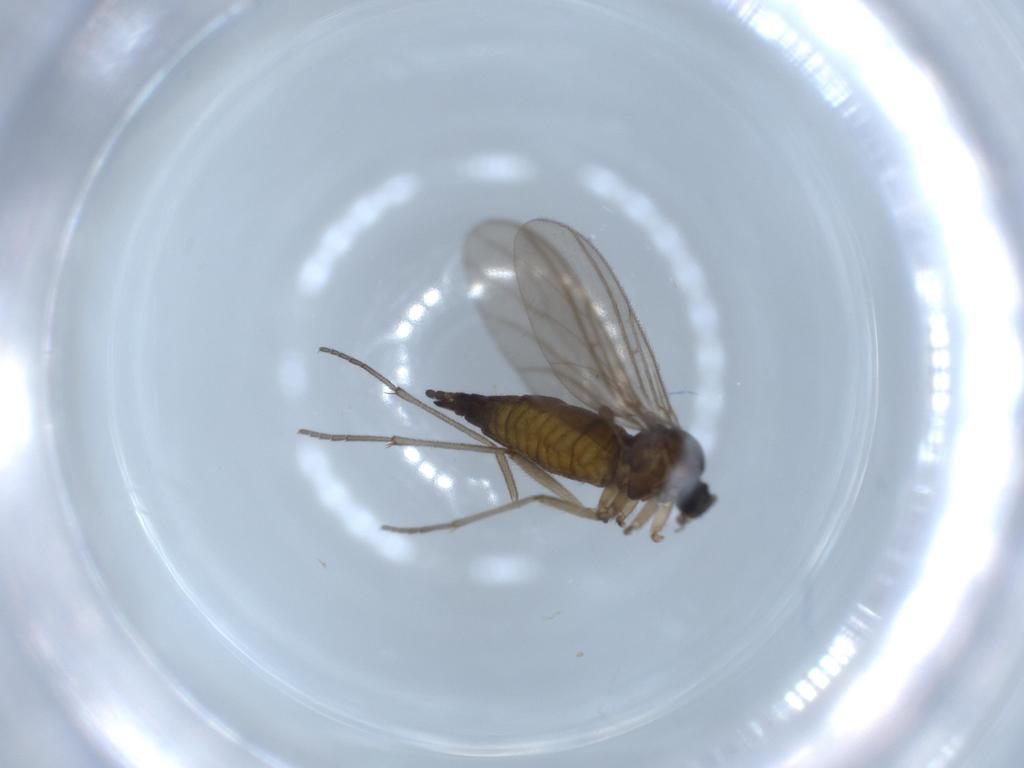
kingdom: Animalia
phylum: Arthropoda
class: Insecta
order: Diptera
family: Sciaridae
